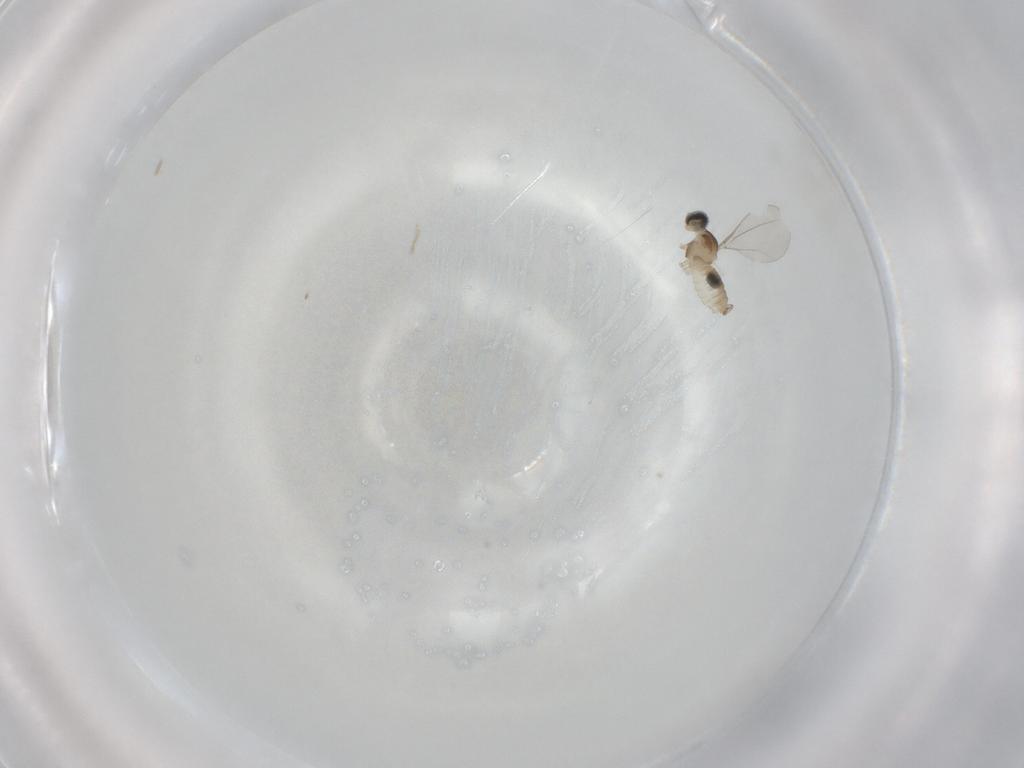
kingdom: Animalia
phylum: Arthropoda
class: Insecta
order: Diptera
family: Cecidomyiidae
